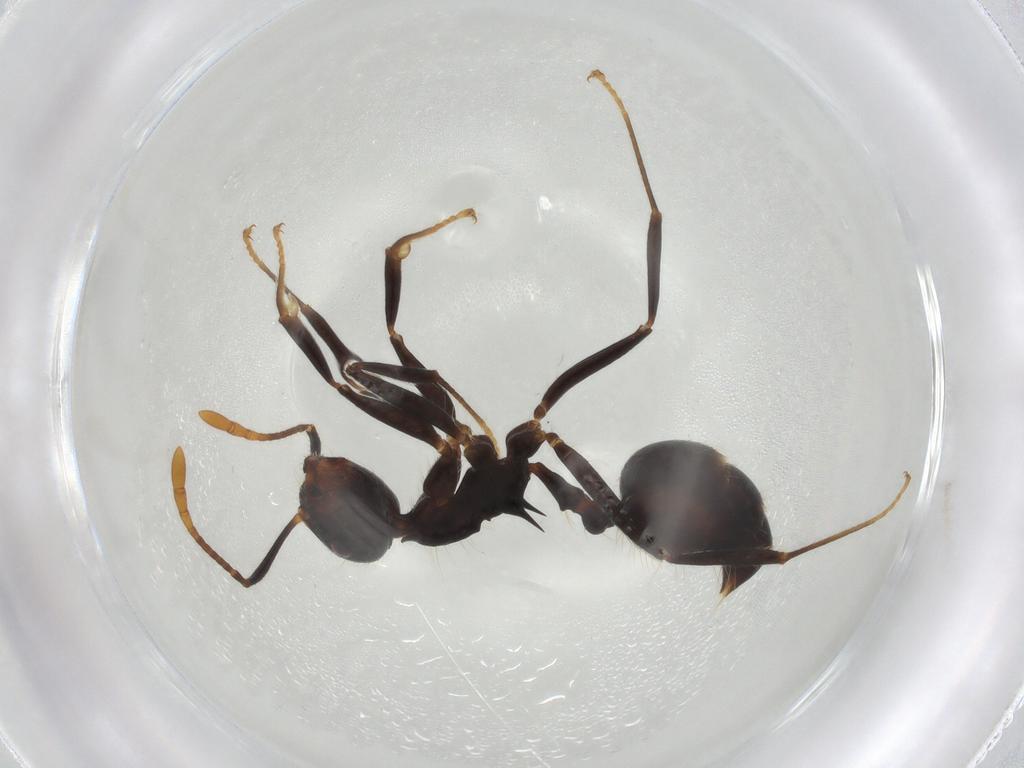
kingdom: Animalia
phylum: Arthropoda
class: Insecta
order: Hymenoptera
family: Formicidae
